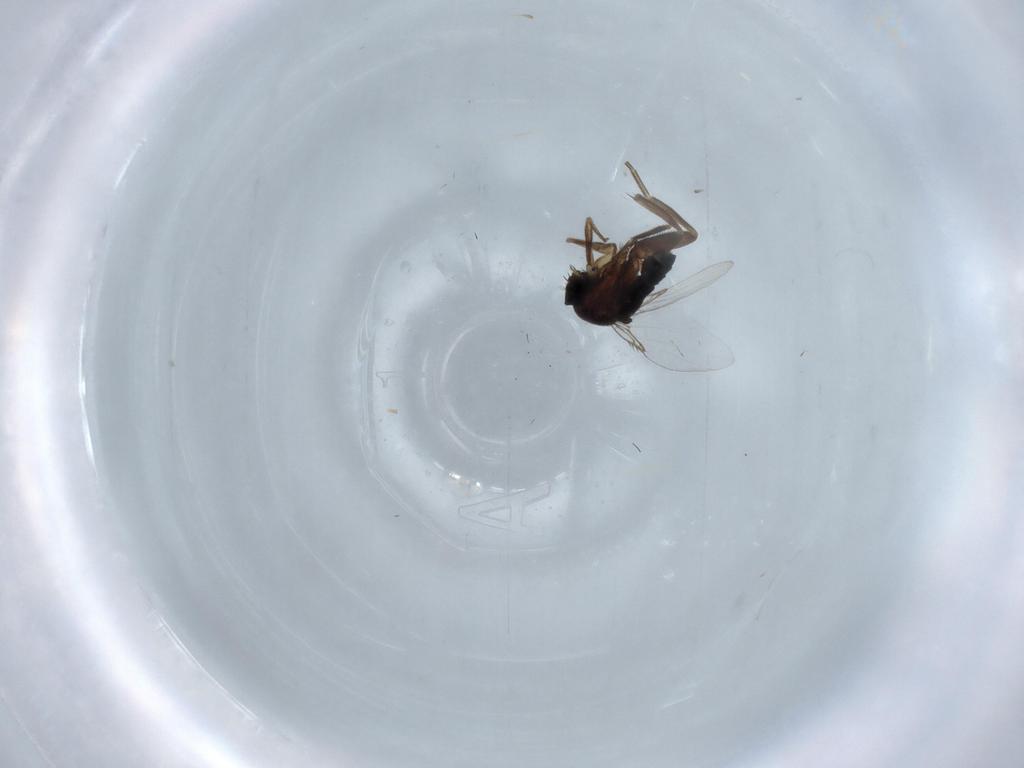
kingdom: Animalia
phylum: Arthropoda
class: Insecta
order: Diptera
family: Phoridae
